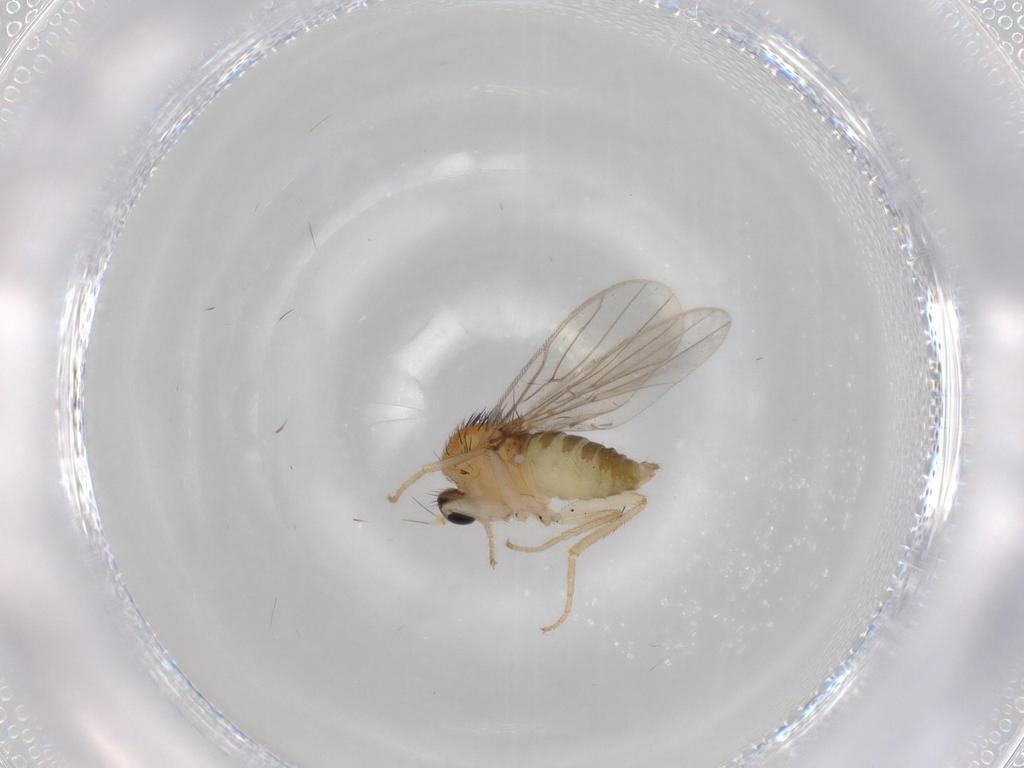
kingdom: Animalia
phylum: Arthropoda
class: Insecta
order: Diptera
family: Hybotidae
